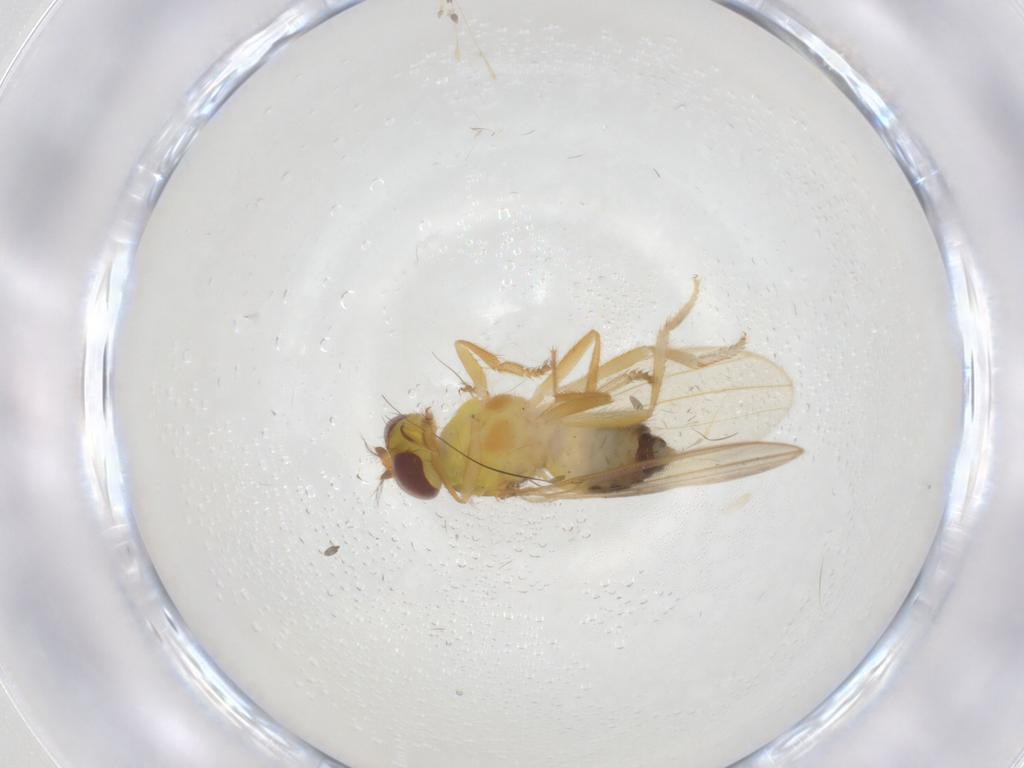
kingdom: Animalia
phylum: Arthropoda
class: Insecta
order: Diptera
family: Periscelididae
